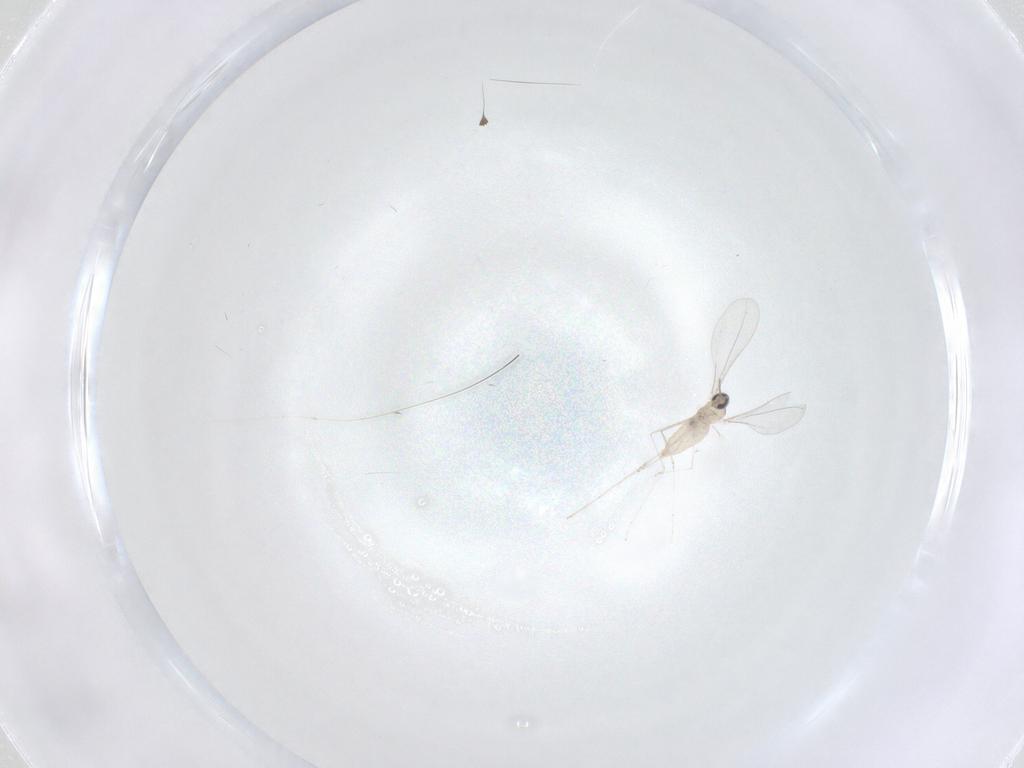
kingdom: Animalia
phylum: Arthropoda
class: Insecta
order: Diptera
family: Cecidomyiidae
